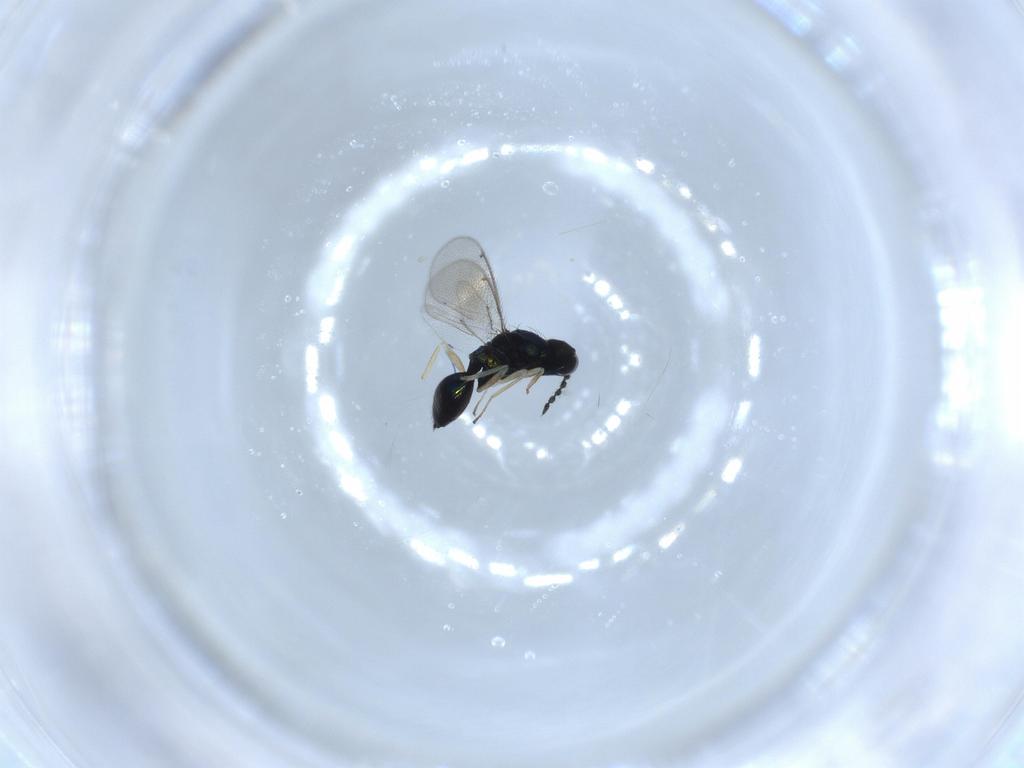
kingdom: Animalia
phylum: Arthropoda
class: Insecta
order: Hymenoptera
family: Eulophidae
